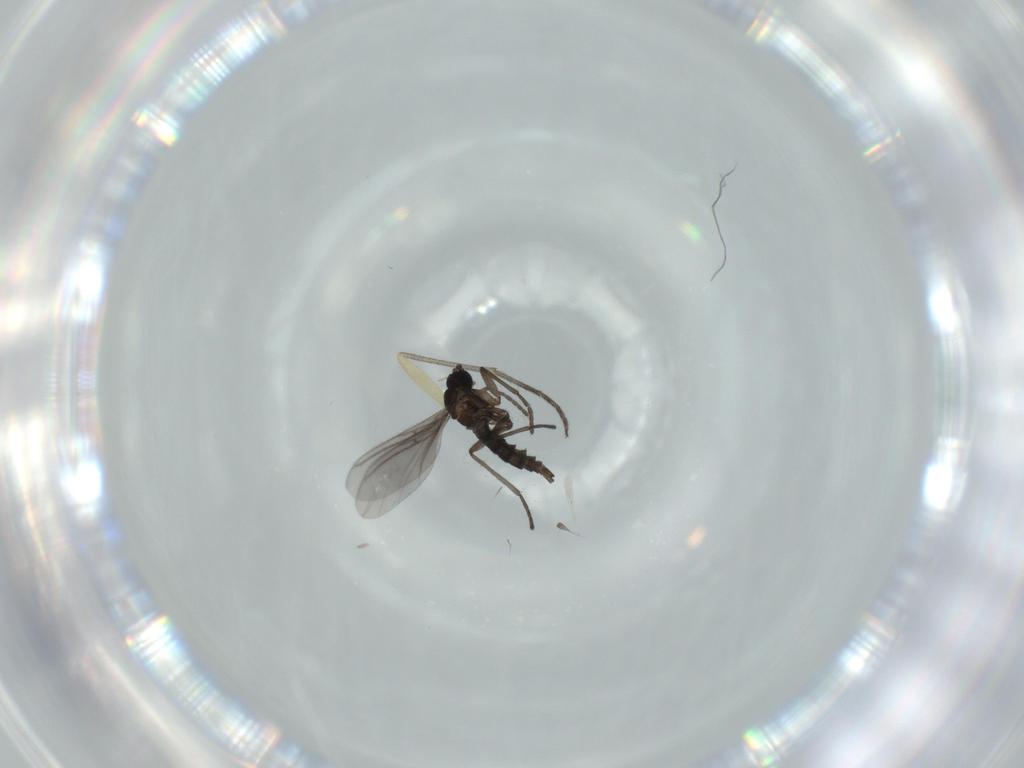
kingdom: Animalia
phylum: Arthropoda
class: Insecta
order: Diptera
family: Sciaridae
